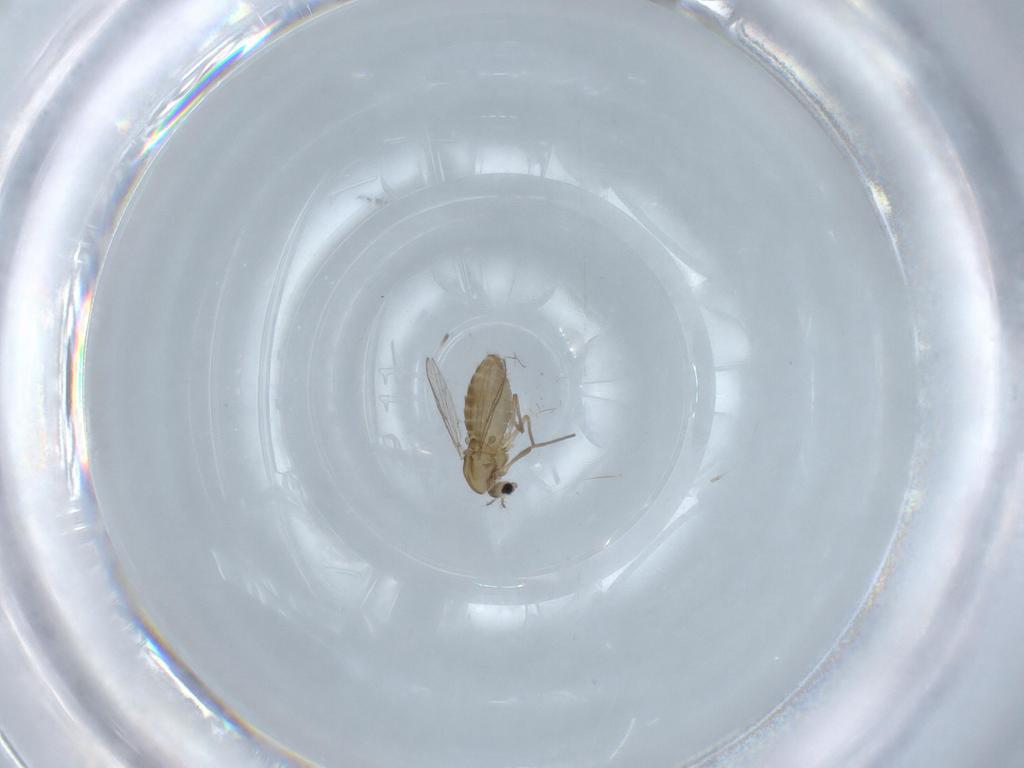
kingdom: Animalia
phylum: Arthropoda
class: Insecta
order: Diptera
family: Chironomidae
